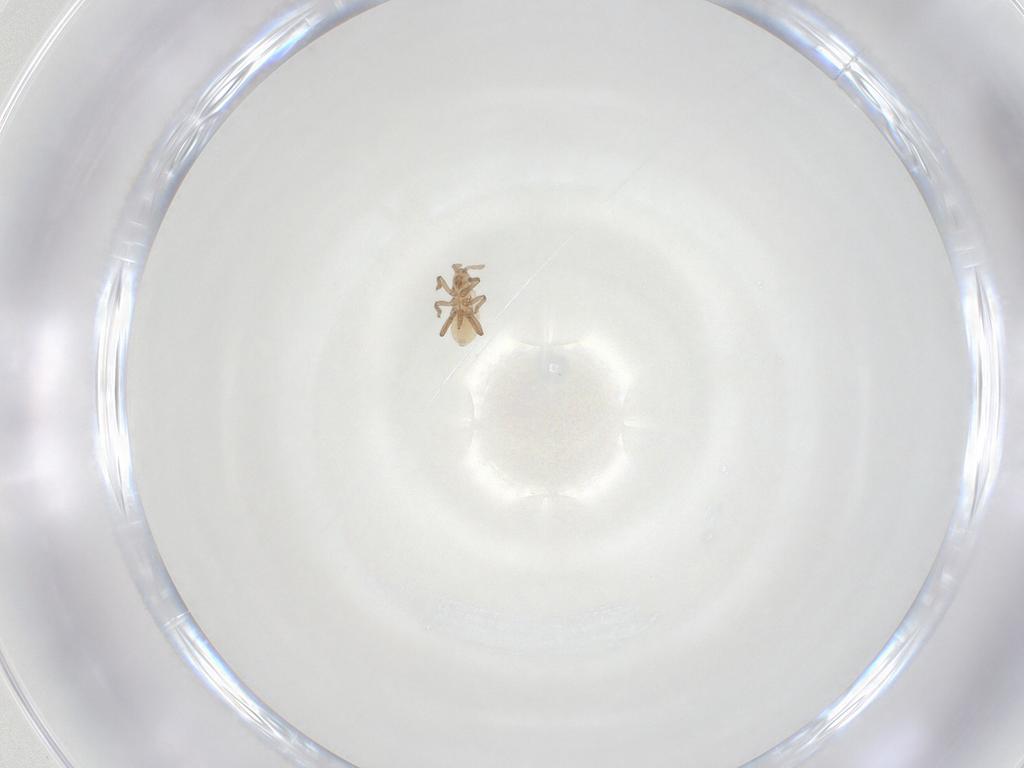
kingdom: Animalia
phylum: Arthropoda
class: Insecta
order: Hemiptera
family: Aphididae
